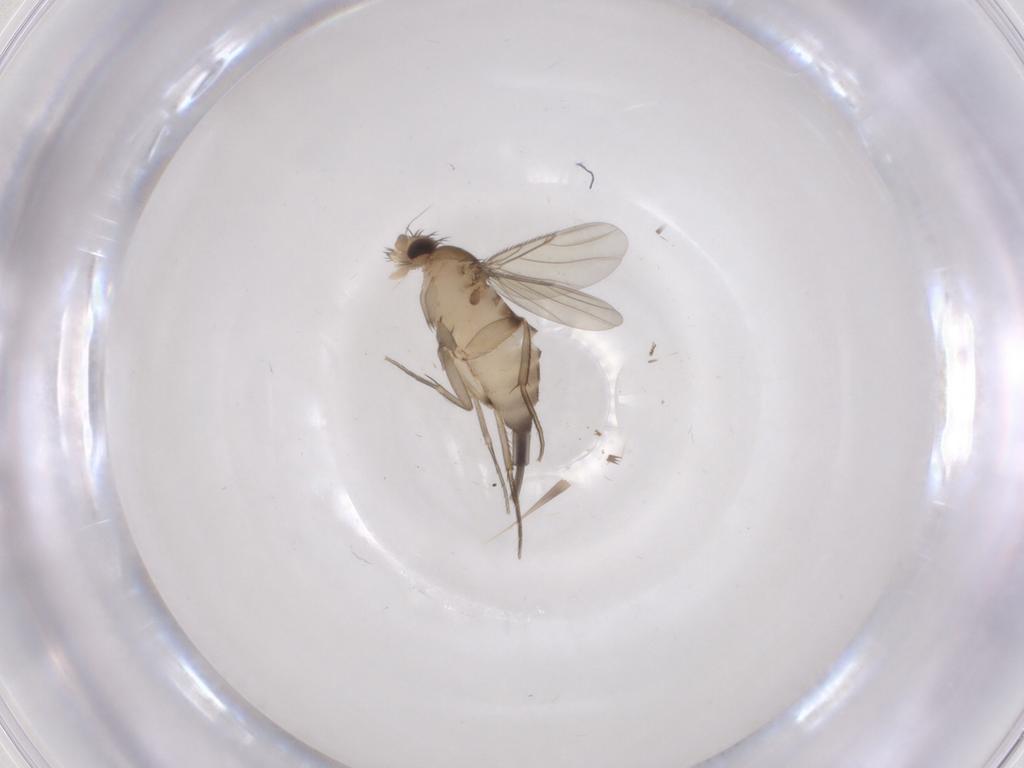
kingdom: Animalia
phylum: Arthropoda
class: Insecta
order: Diptera
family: Phoridae
